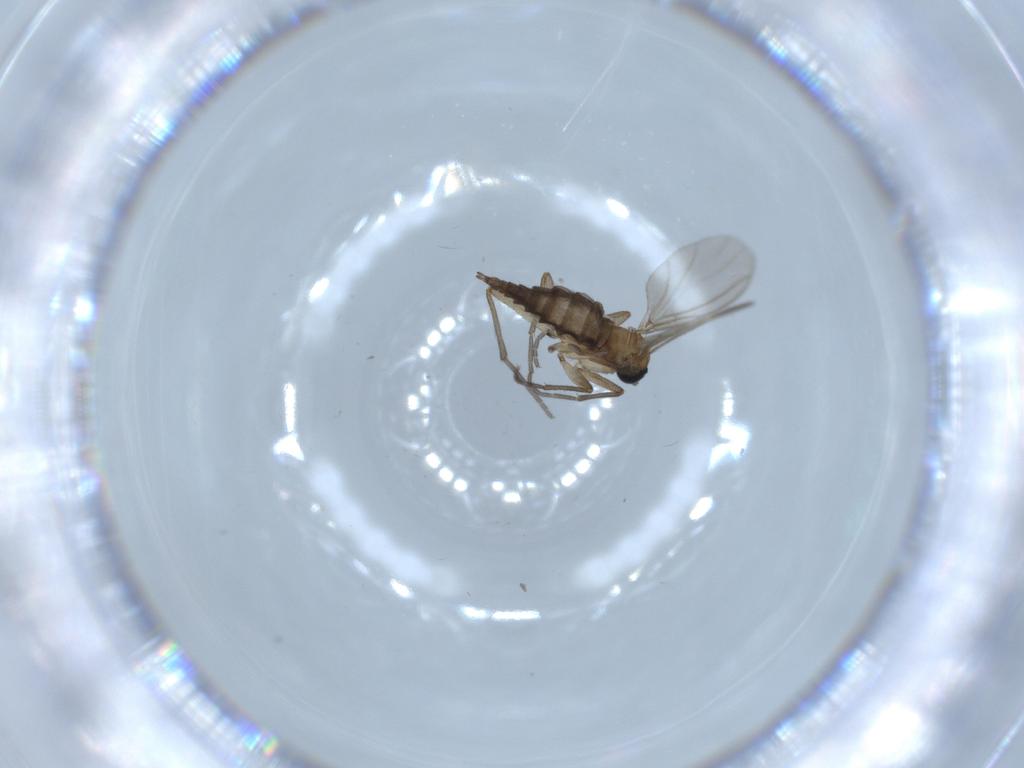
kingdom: Animalia
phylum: Arthropoda
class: Insecta
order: Diptera
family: Sciaridae
